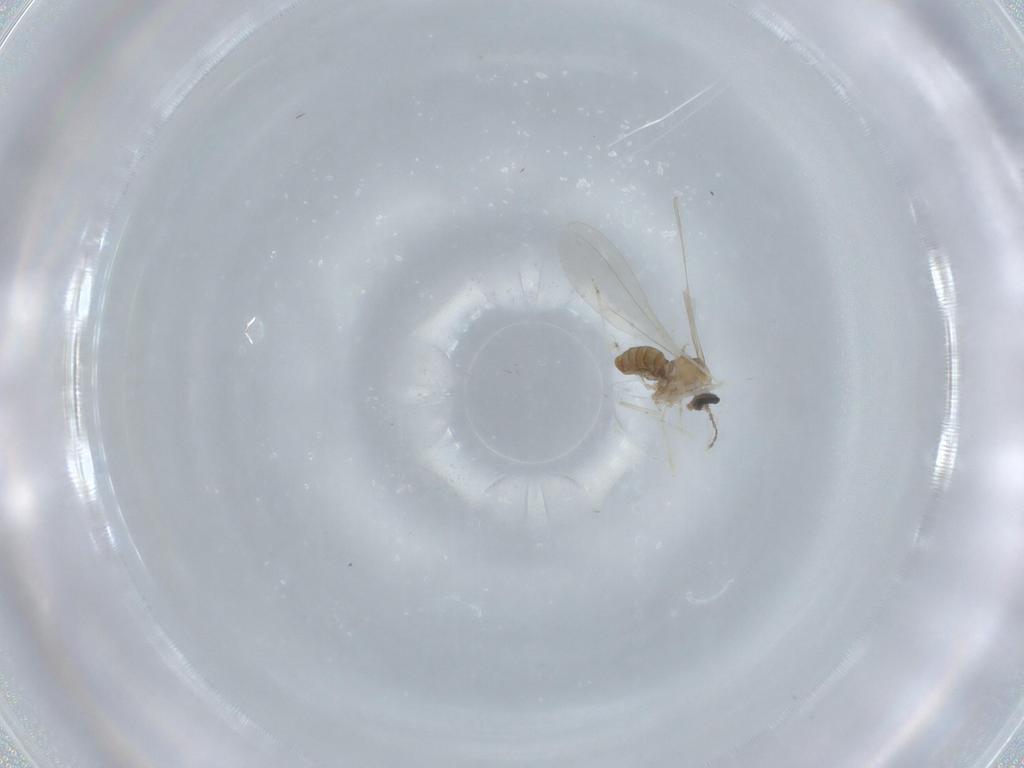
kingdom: Animalia
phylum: Arthropoda
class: Insecta
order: Diptera
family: Cecidomyiidae
